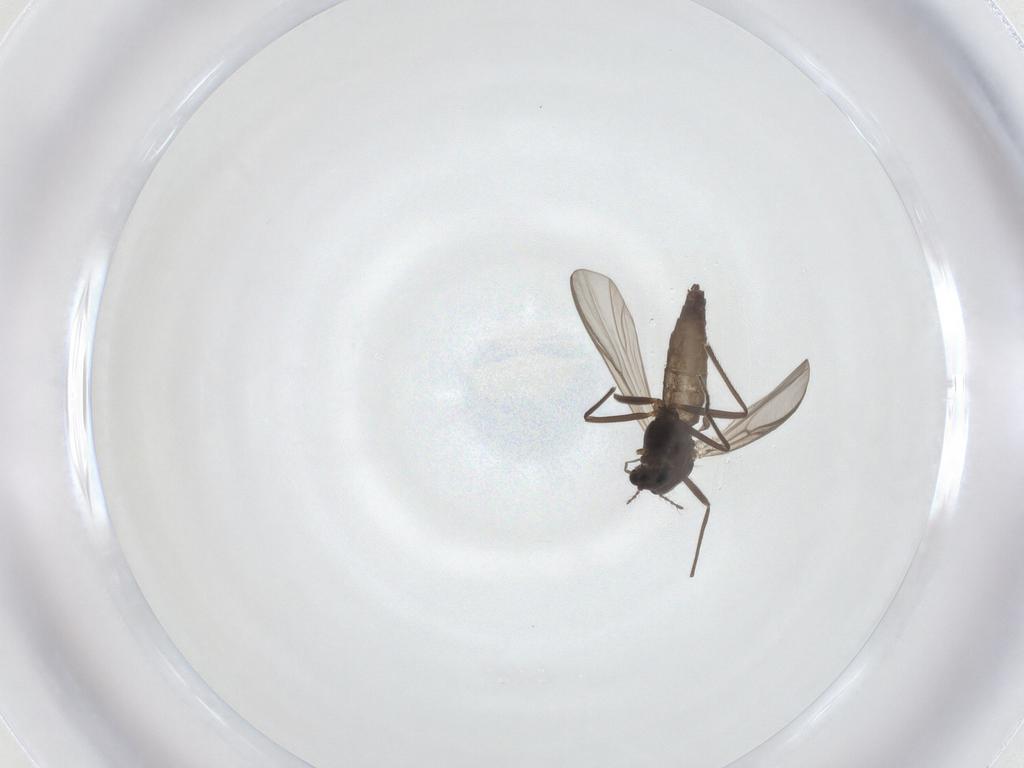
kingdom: Animalia
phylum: Arthropoda
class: Insecta
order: Diptera
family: Chironomidae
